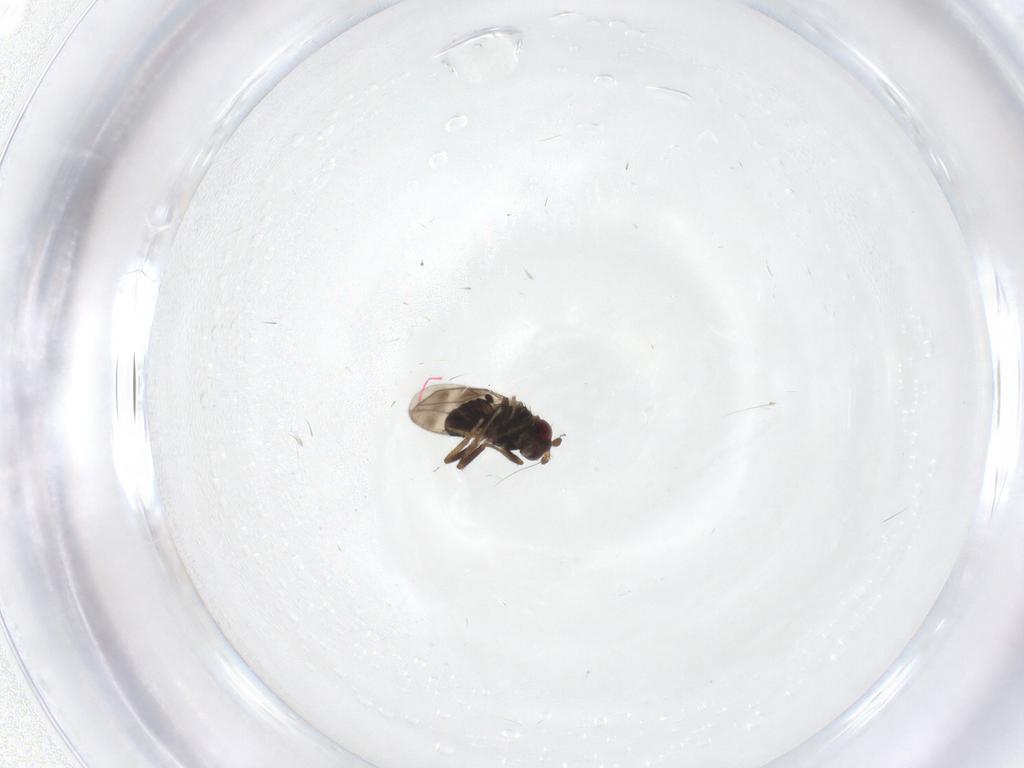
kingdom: Animalia
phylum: Arthropoda
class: Insecta
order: Diptera
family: Sphaeroceridae
